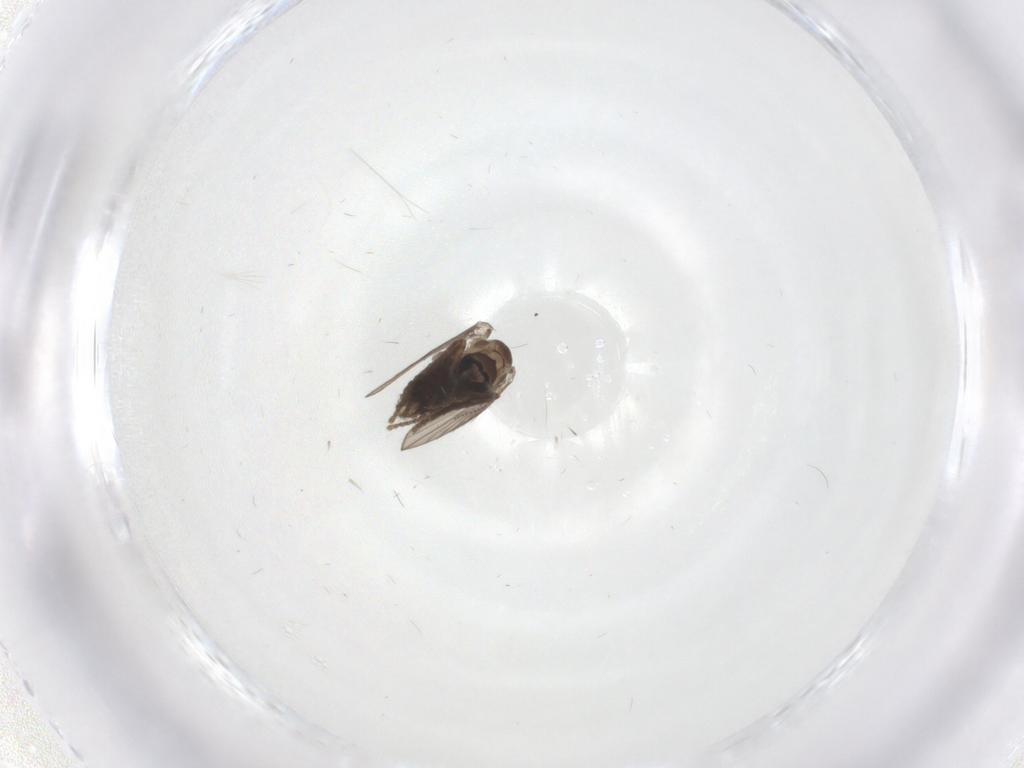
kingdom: Animalia
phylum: Arthropoda
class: Insecta
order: Diptera
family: Psychodidae
